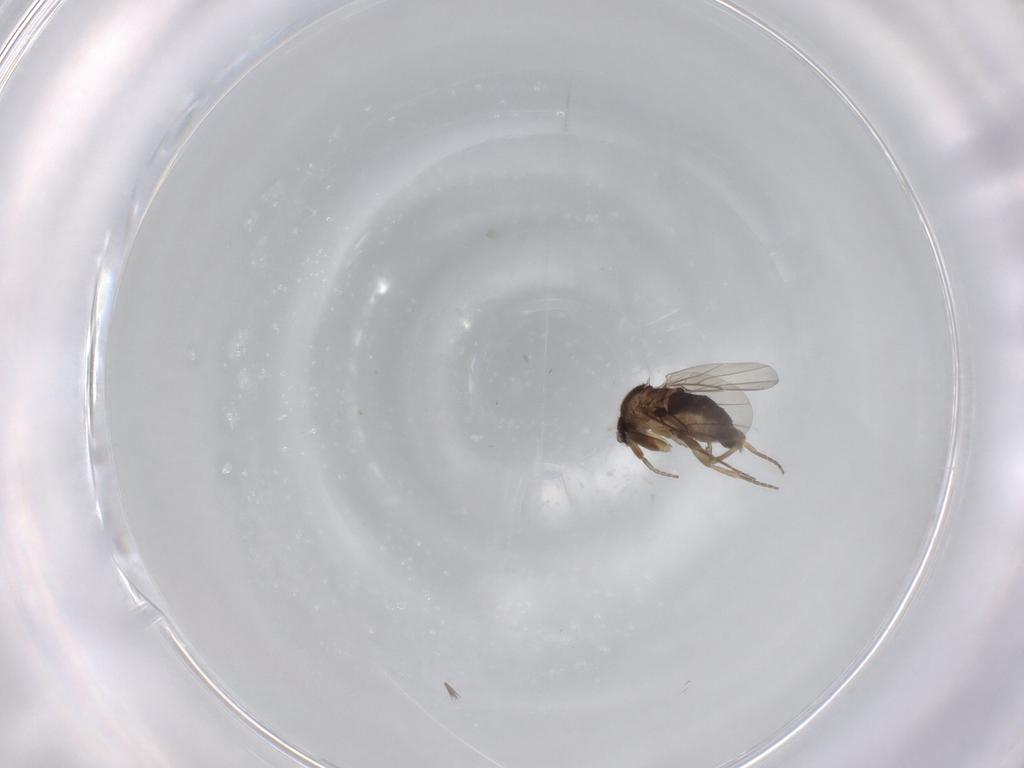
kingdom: Animalia
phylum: Arthropoda
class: Insecta
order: Diptera
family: Phoridae
